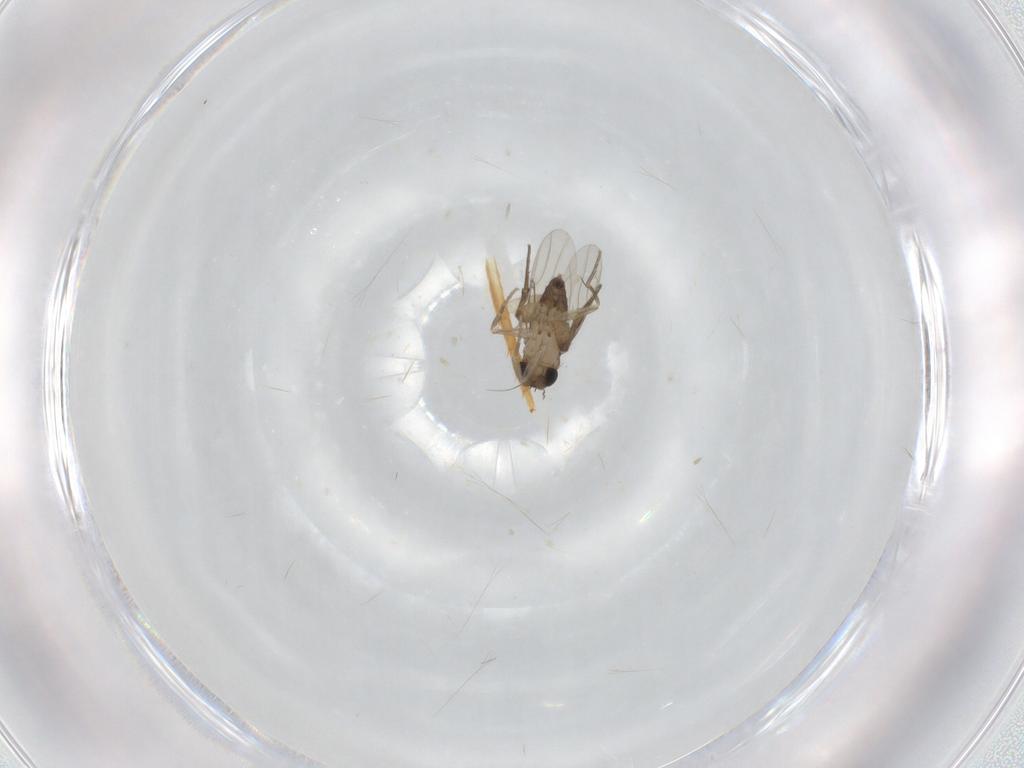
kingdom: Animalia
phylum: Arthropoda
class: Insecta
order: Diptera
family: Phoridae
